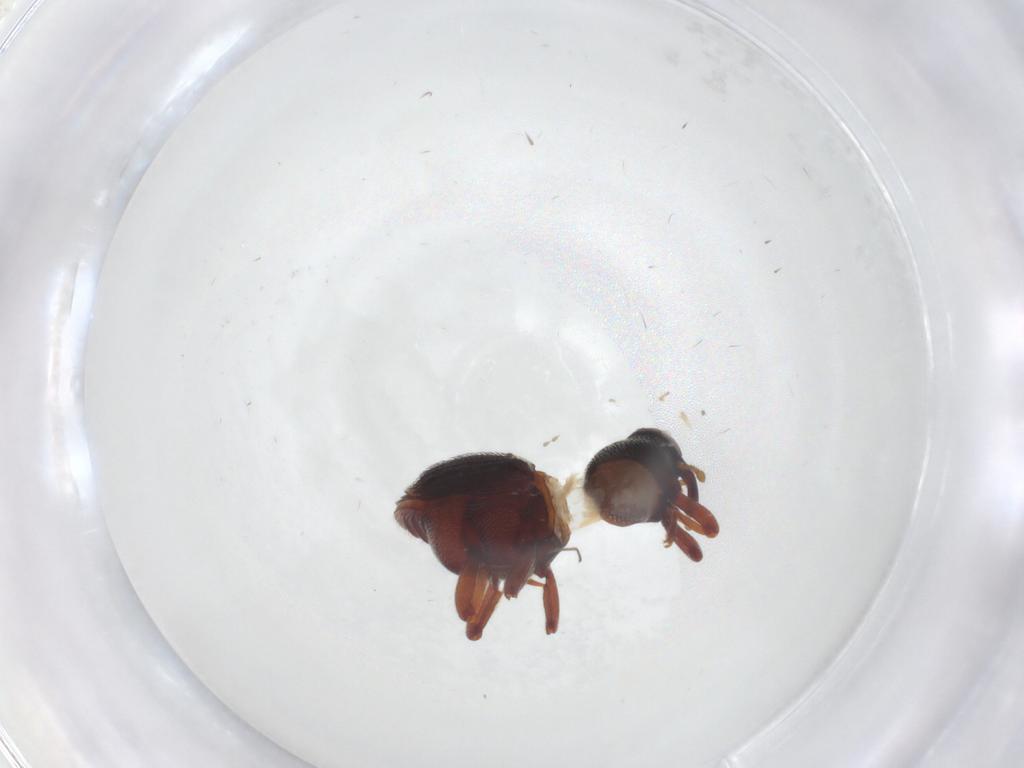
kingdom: Animalia
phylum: Arthropoda
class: Insecta
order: Coleoptera
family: Curculionidae
